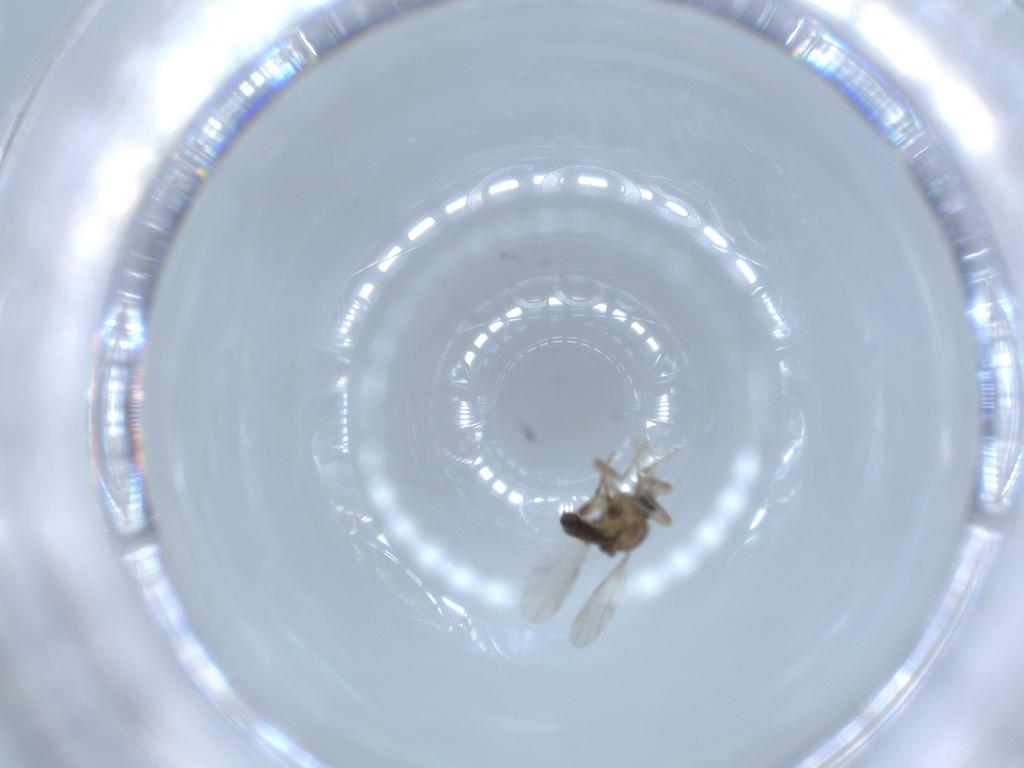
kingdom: Animalia
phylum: Arthropoda
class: Insecta
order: Diptera
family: Ceratopogonidae
